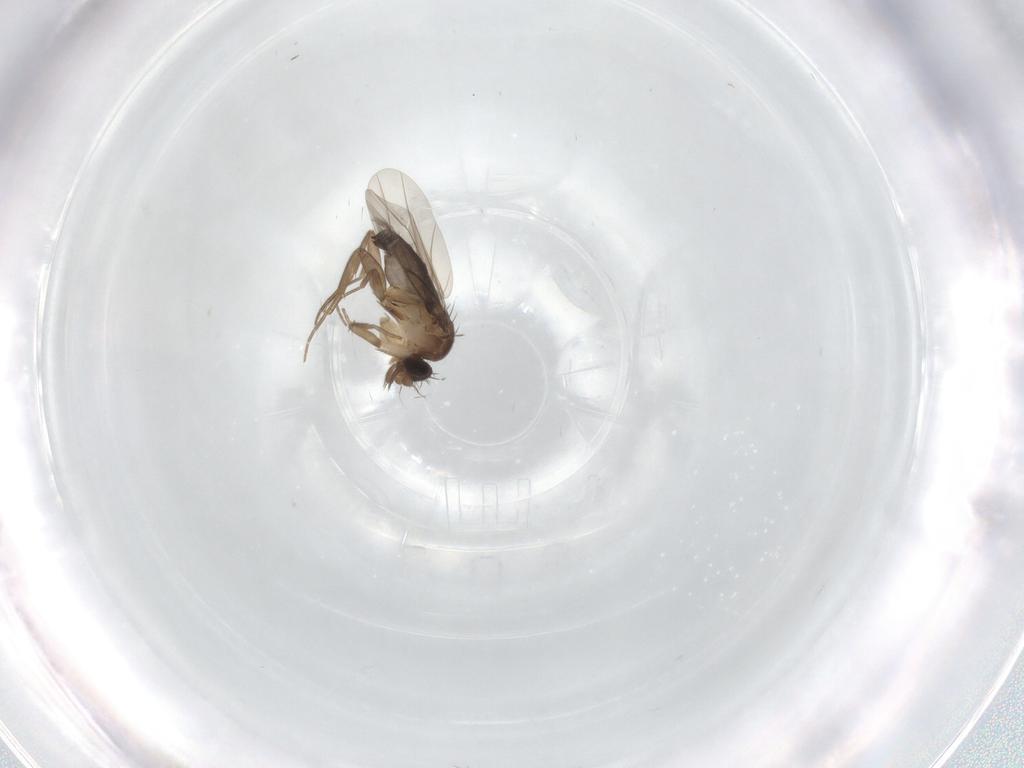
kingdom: Animalia
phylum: Arthropoda
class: Insecta
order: Diptera
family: Phoridae
